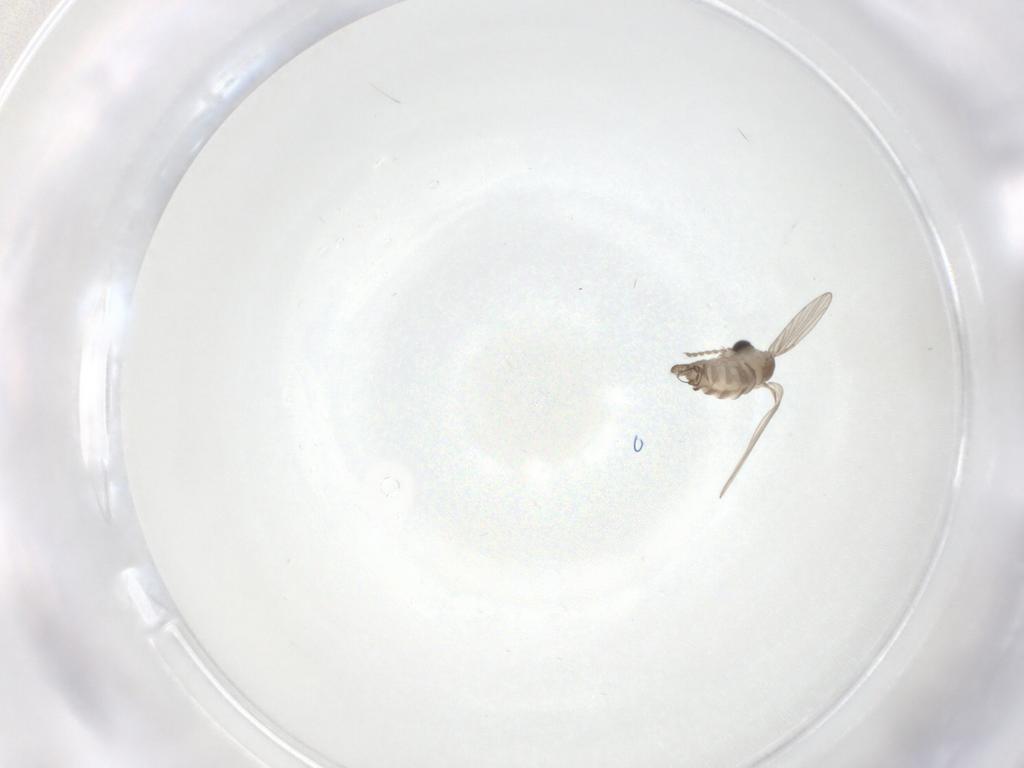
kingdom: Animalia
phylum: Arthropoda
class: Insecta
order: Diptera
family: Psychodidae
